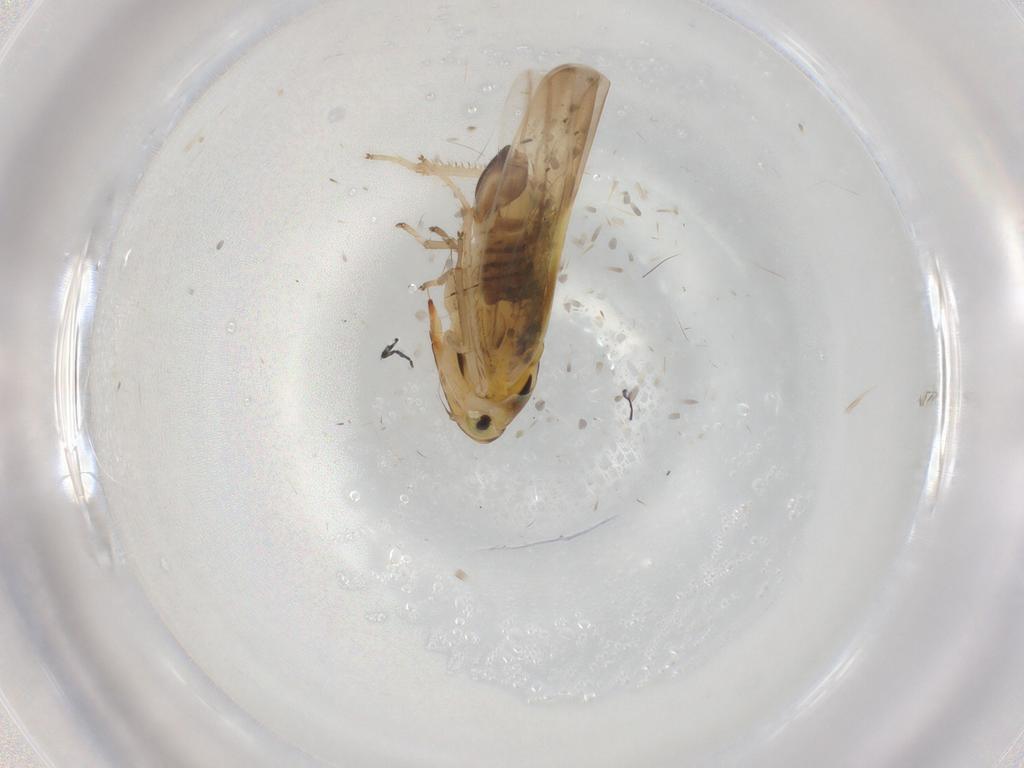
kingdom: Animalia
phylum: Arthropoda
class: Insecta
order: Hymenoptera
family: Dryinidae
